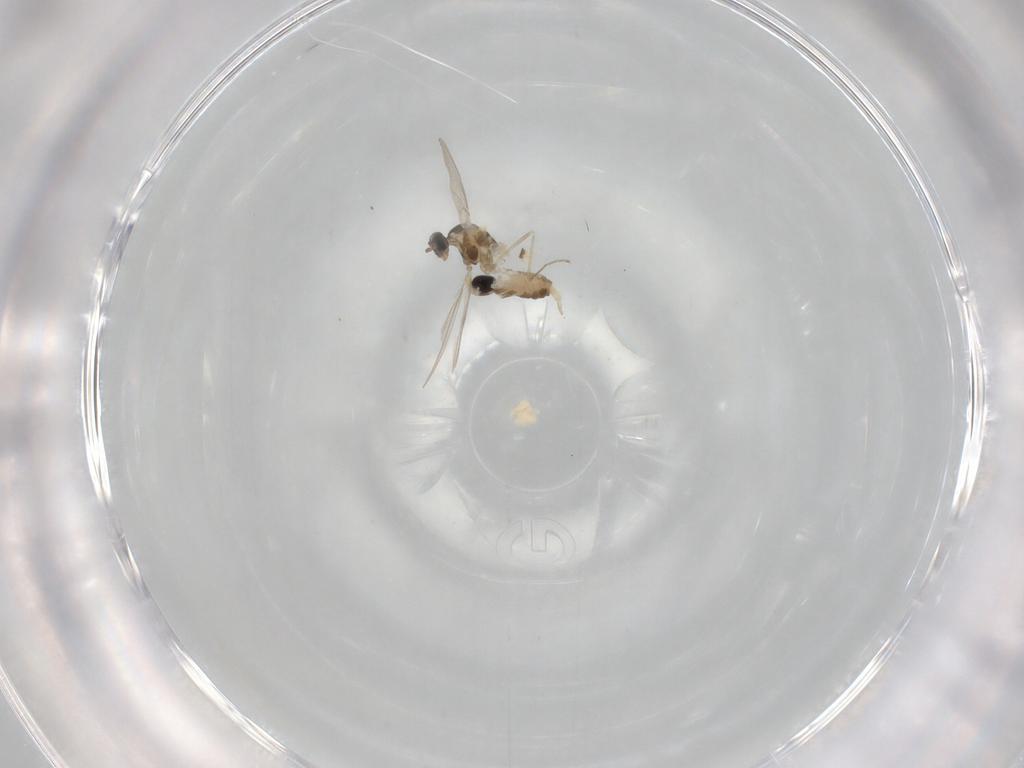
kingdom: Animalia
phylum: Arthropoda
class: Insecta
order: Diptera
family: Cecidomyiidae
